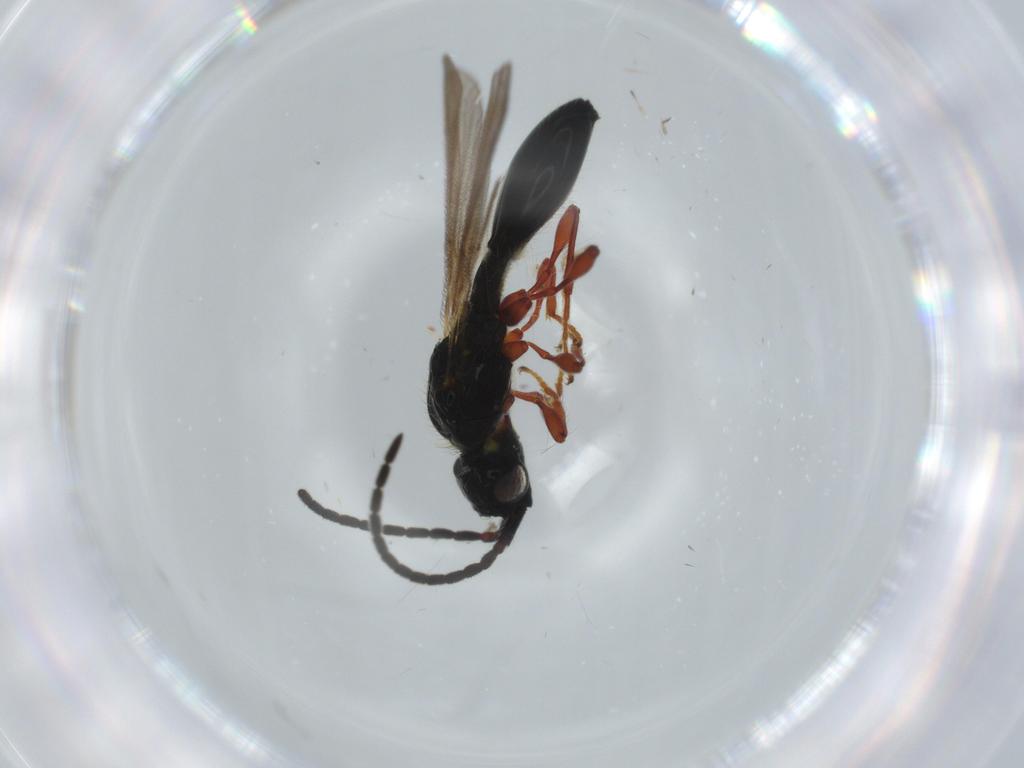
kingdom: Animalia
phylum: Arthropoda
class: Insecta
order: Hymenoptera
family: Diapriidae
